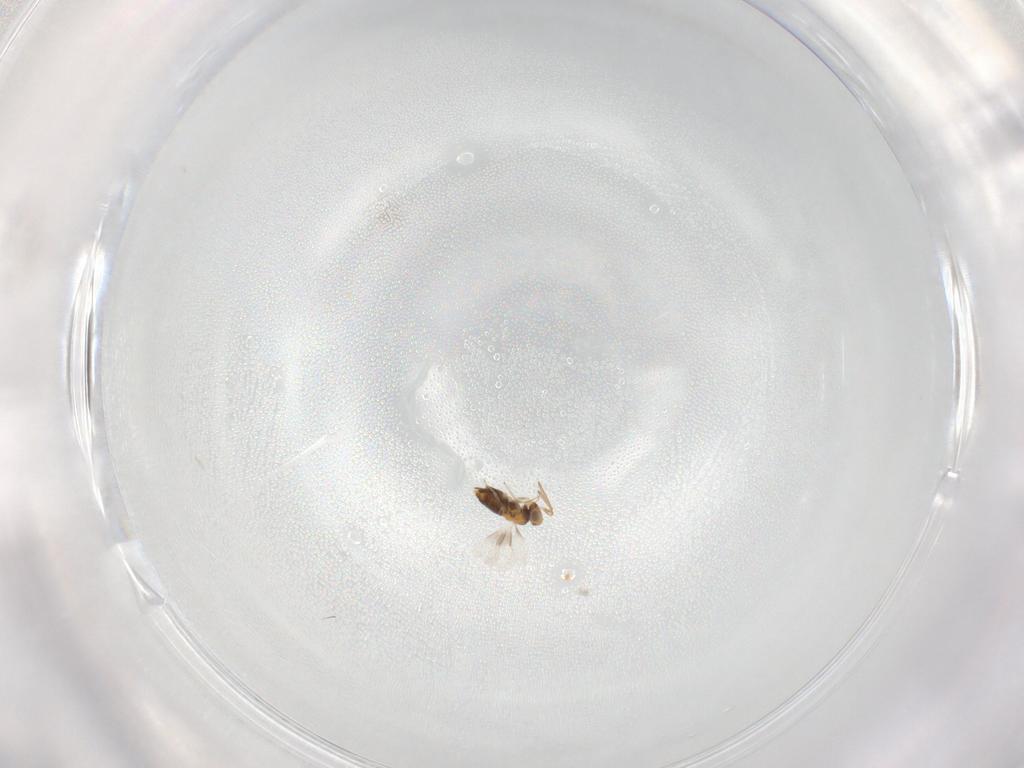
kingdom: Animalia
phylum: Arthropoda
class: Insecta
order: Hymenoptera
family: Aphelinidae
